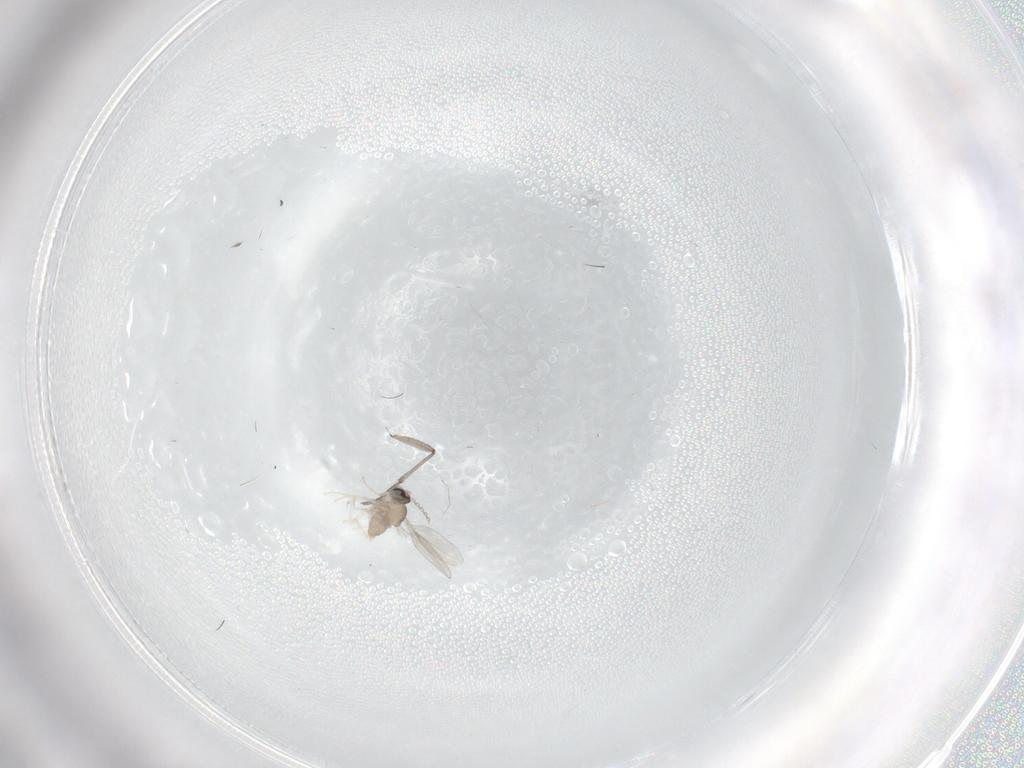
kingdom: Animalia
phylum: Arthropoda
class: Insecta
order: Diptera
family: Sciaridae
